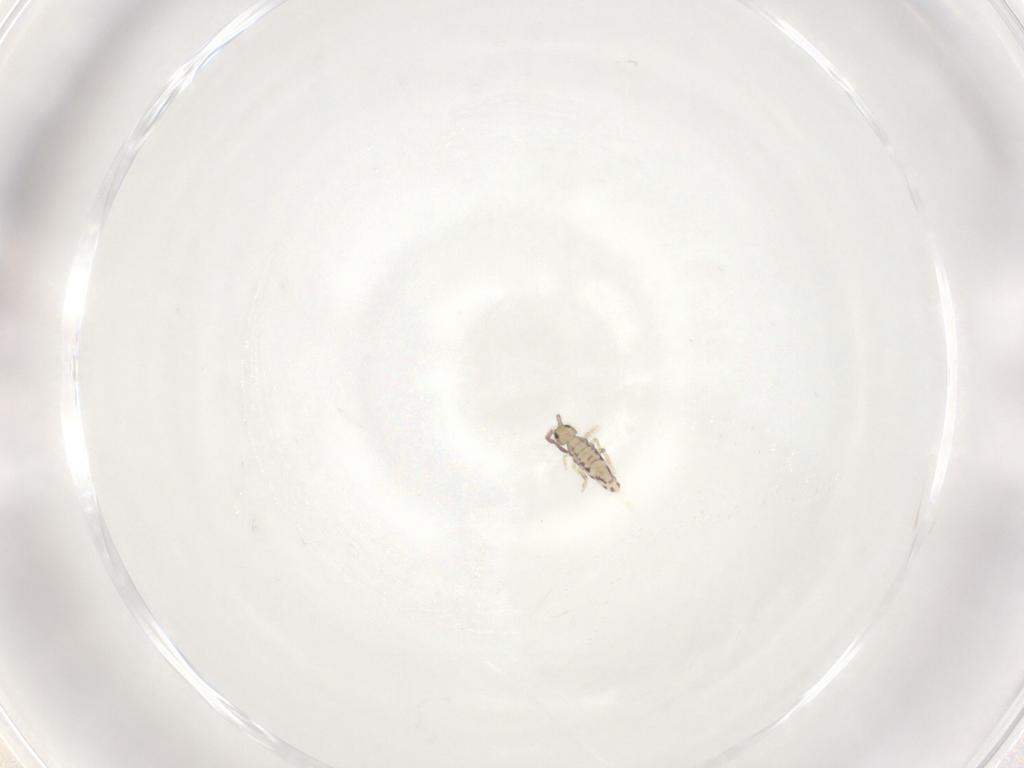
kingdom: Animalia
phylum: Arthropoda
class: Collembola
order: Entomobryomorpha
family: Entomobryidae
